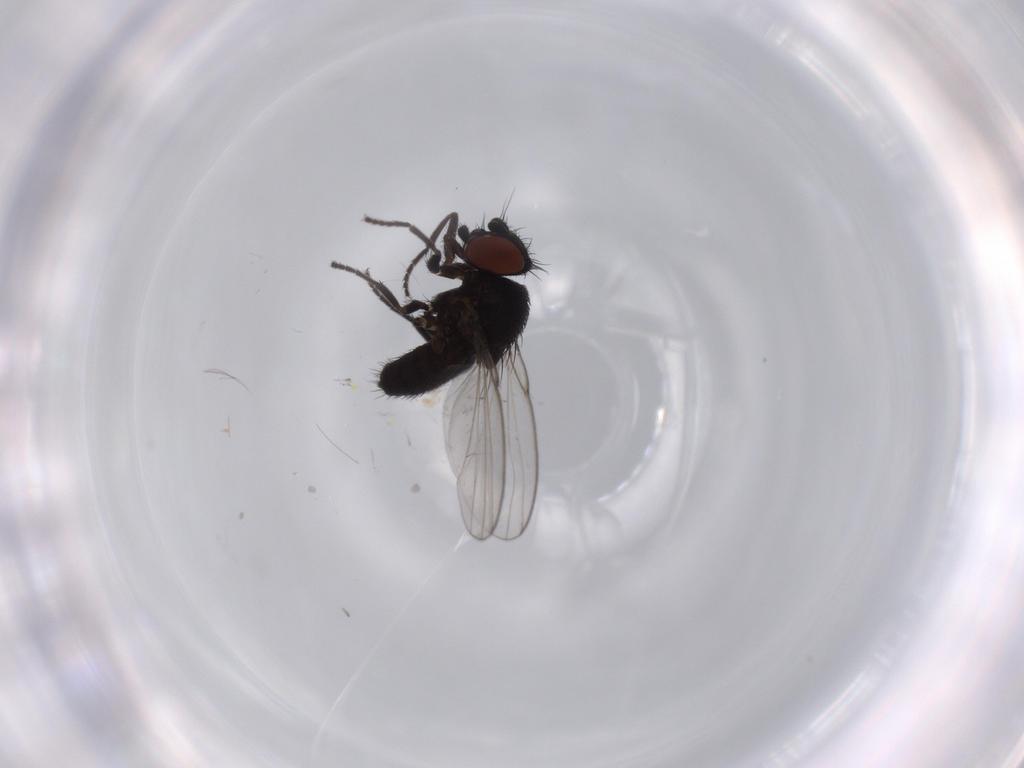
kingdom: Animalia
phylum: Arthropoda
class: Insecta
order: Diptera
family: Milichiidae
